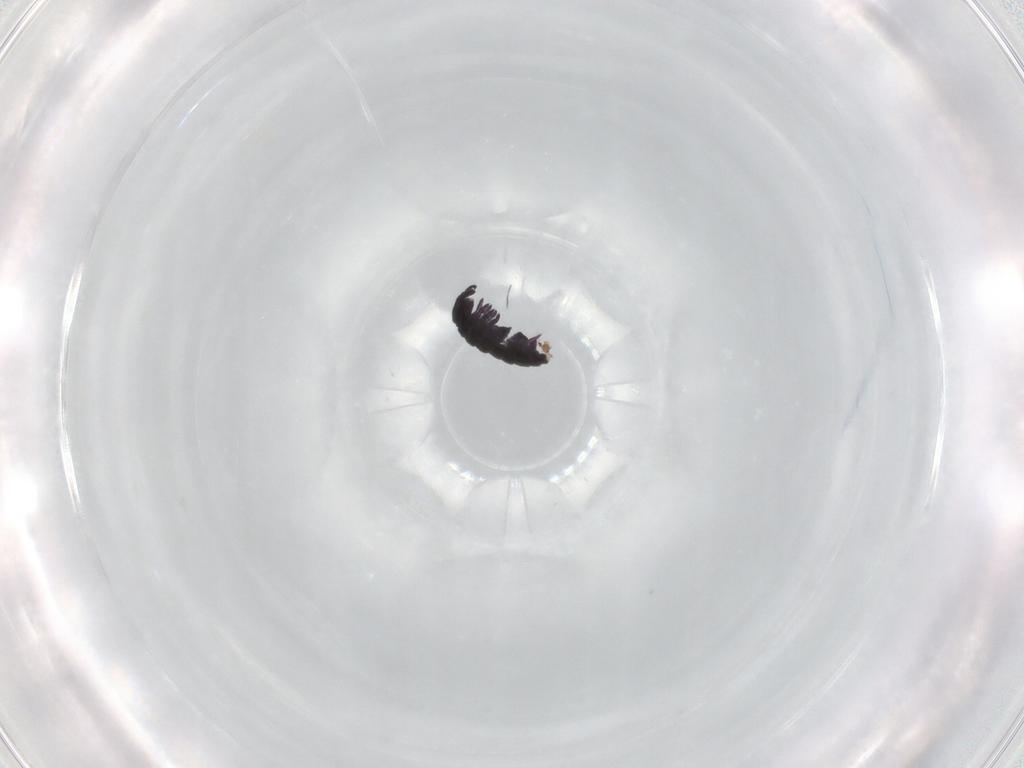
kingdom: Animalia
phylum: Arthropoda
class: Collembola
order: Poduromorpha
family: Hypogastruridae
